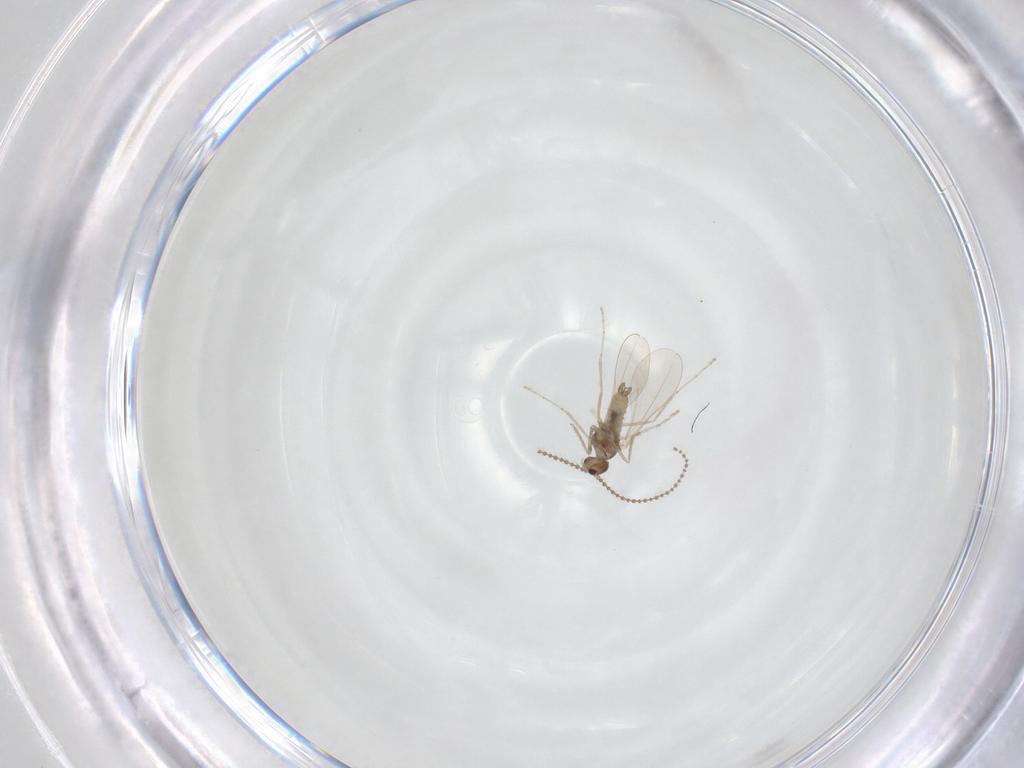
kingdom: Animalia
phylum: Arthropoda
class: Insecta
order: Diptera
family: Cecidomyiidae
